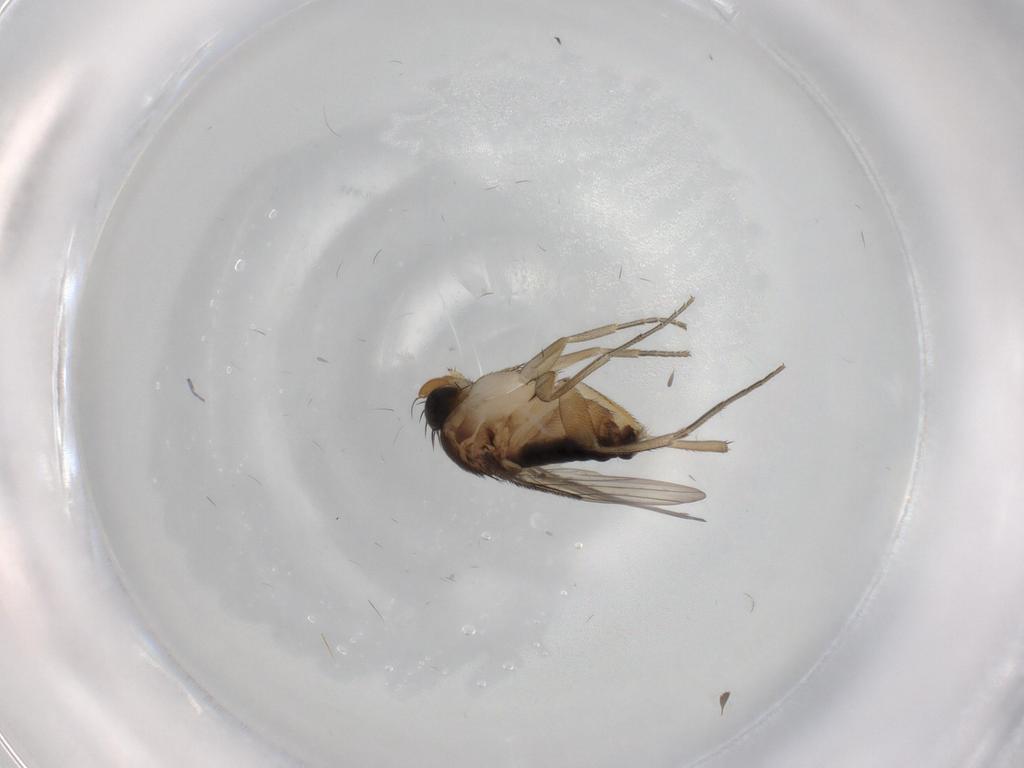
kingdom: Animalia
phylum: Arthropoda
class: Insecta
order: Diptera
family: Phoridae
